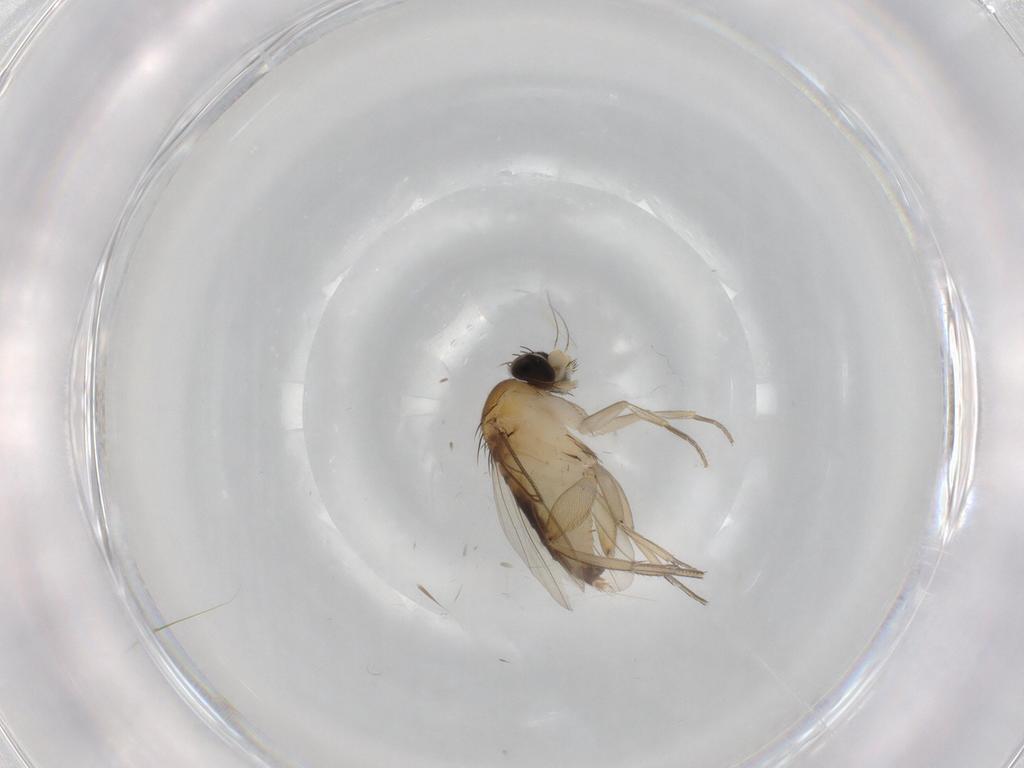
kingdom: Animalia
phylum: Arthropoda
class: Insecta
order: Diptera
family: Phoridae
